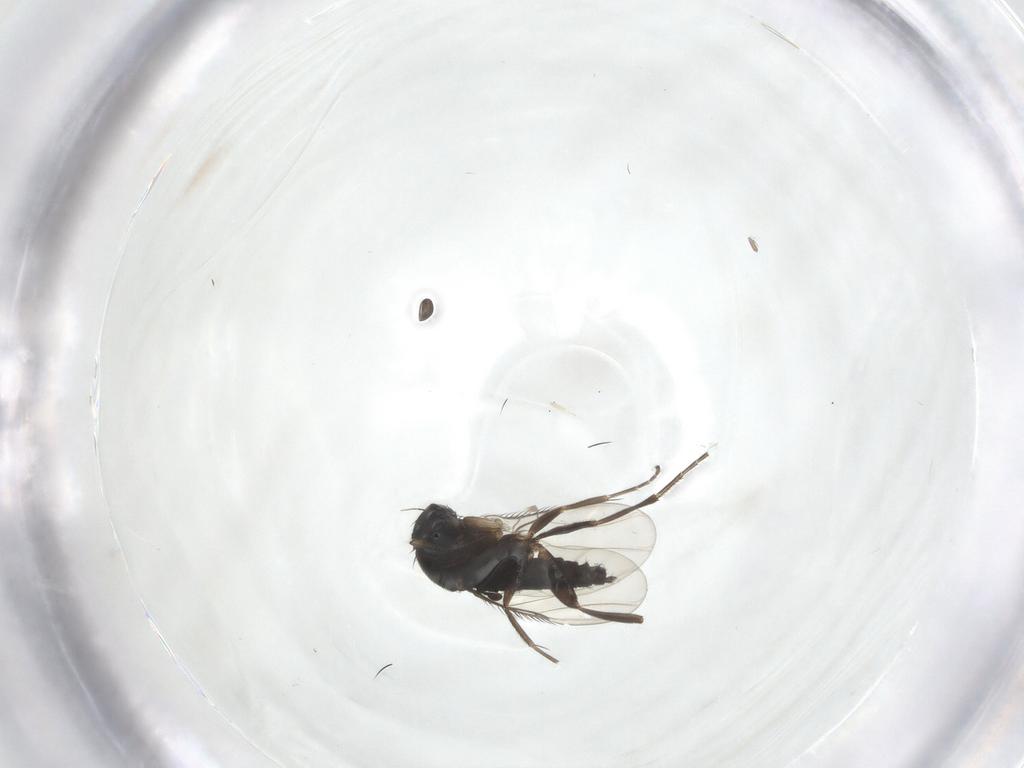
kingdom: Animalia
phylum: Arthropoda
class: Insecta
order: Diptera
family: Phoridae
